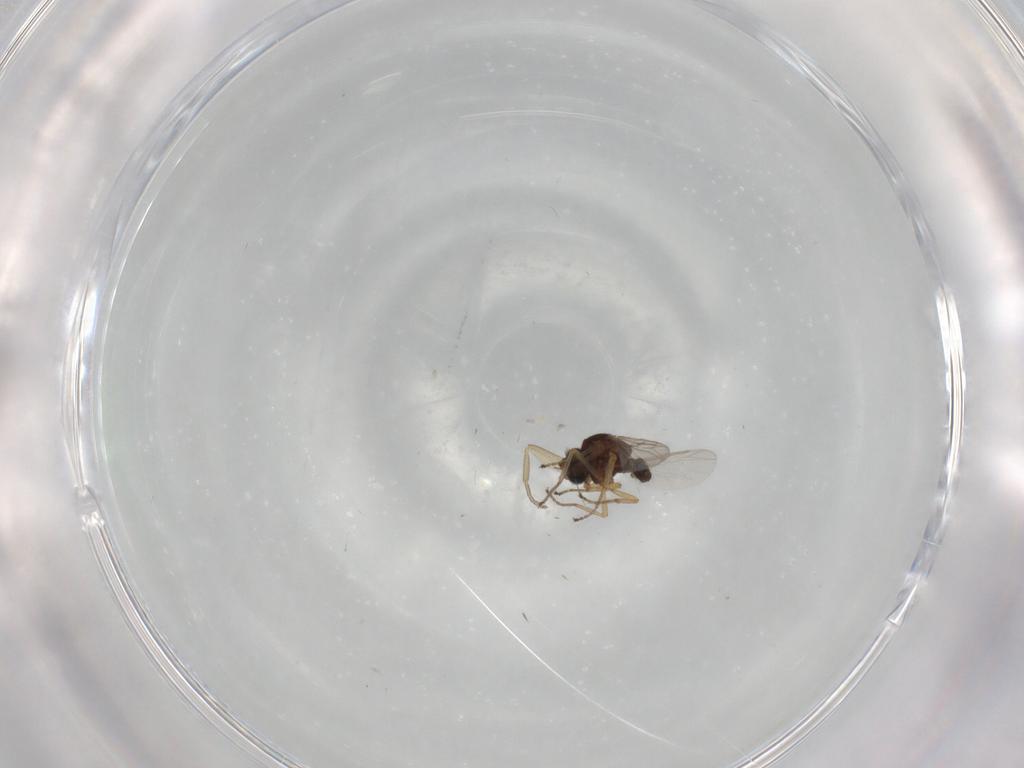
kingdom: Animalia
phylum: Arthropoda
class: Insecta
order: Diptera
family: Ceratopogonidae
